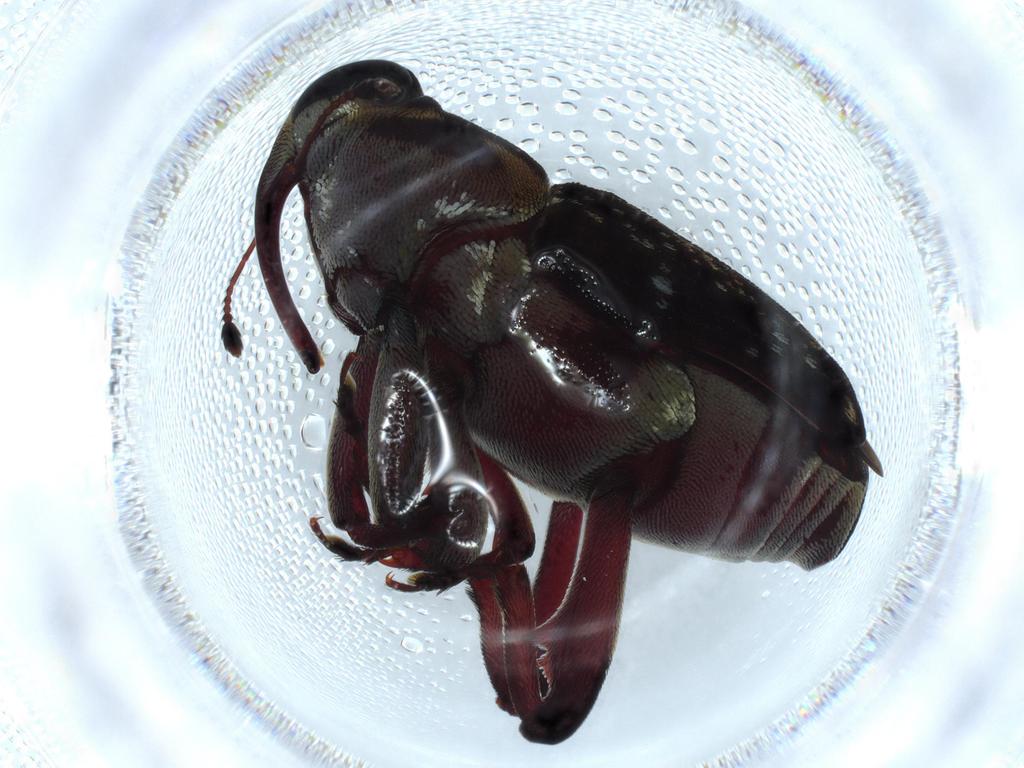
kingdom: Animalia
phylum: Arthropoda
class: Insecta
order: Coleoptera
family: Curculionidae
